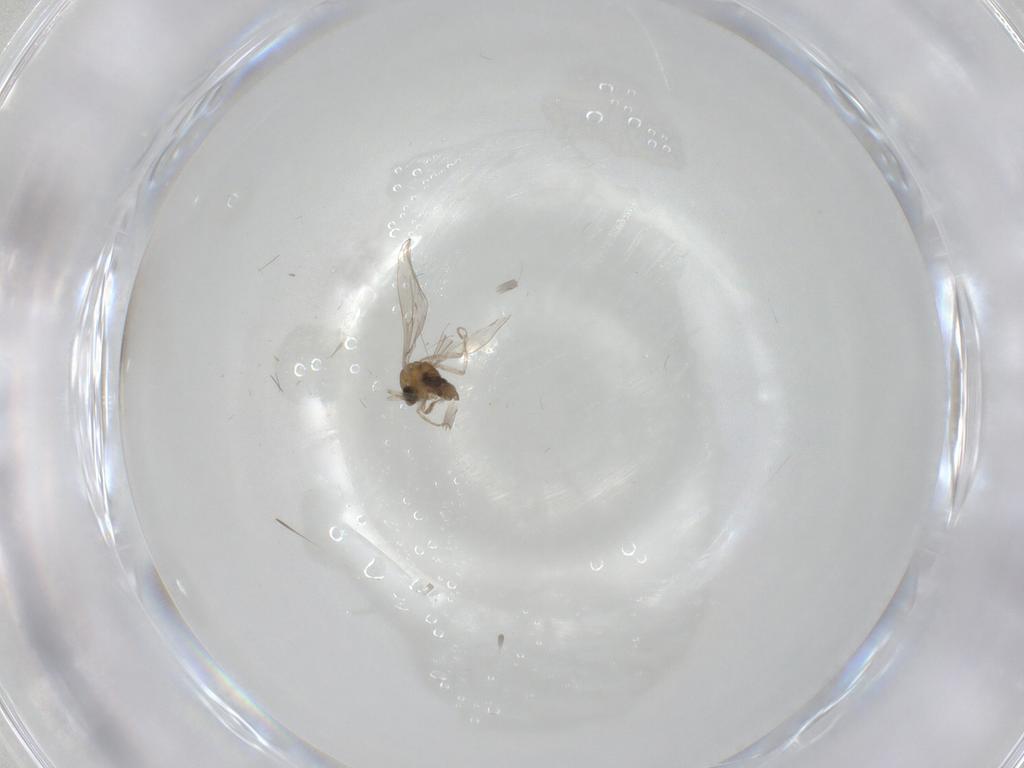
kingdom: Animalia
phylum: Arthropoda
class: Insecta
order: Diptera
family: Chironomidae
